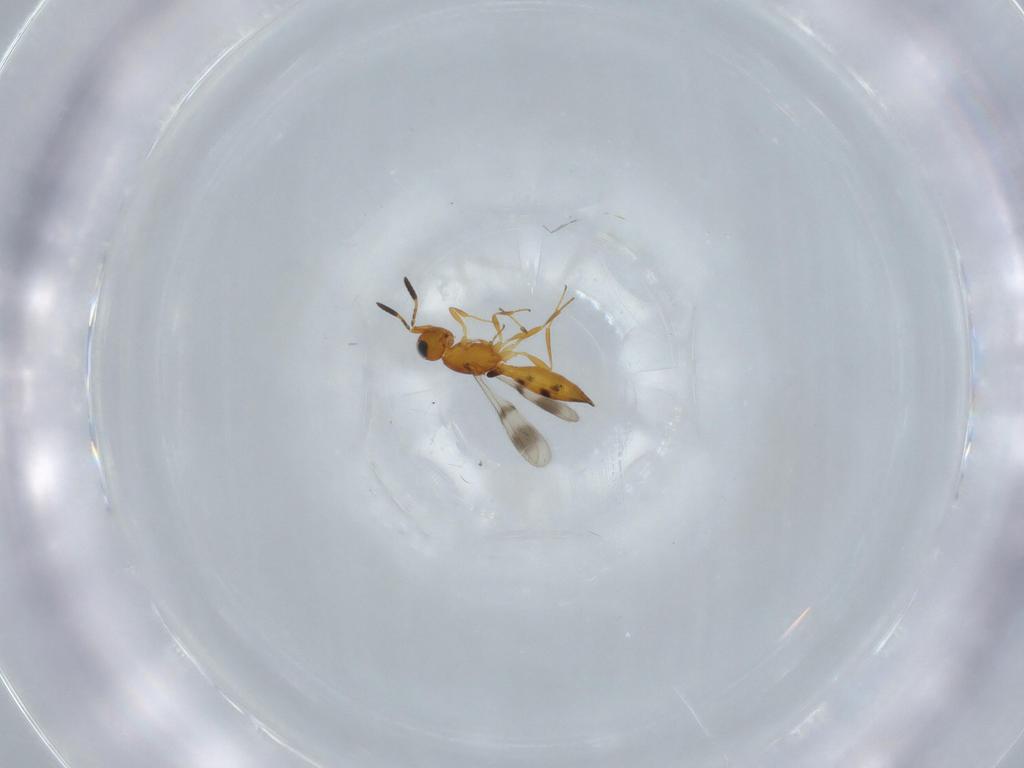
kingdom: Animalia
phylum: Arthropoda
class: Insecta
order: Hymenoptera
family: Scelionidae
